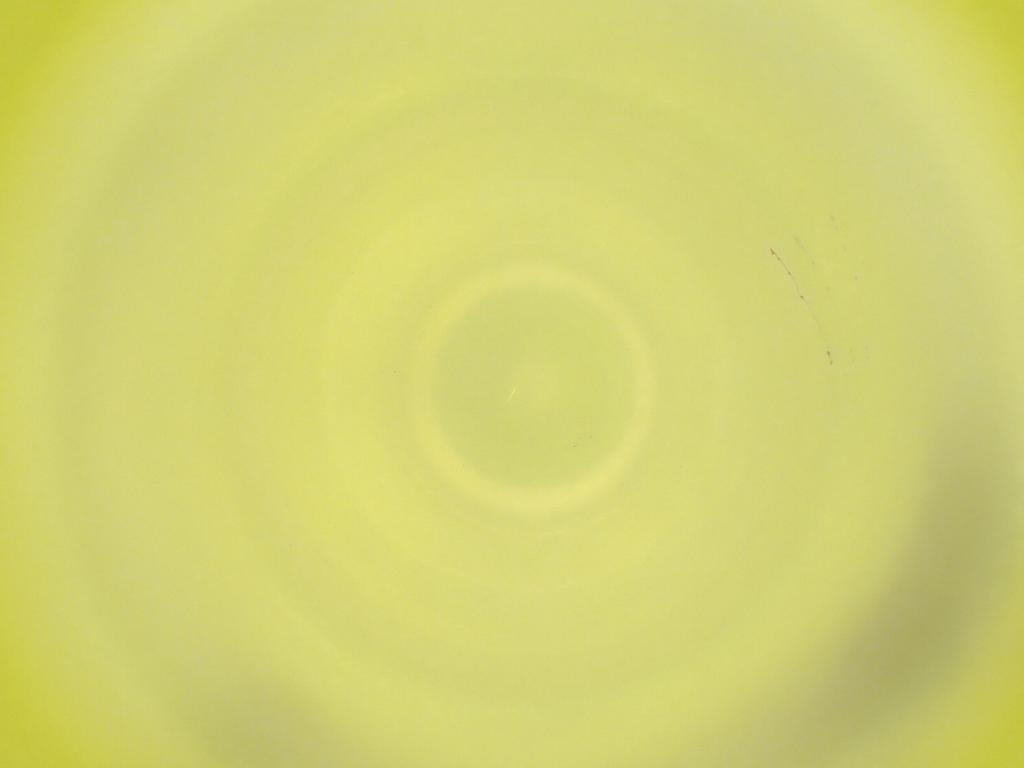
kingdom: Animalia
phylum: Arthropoda
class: Insecta
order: Diptera
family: Cecidomyiidae
